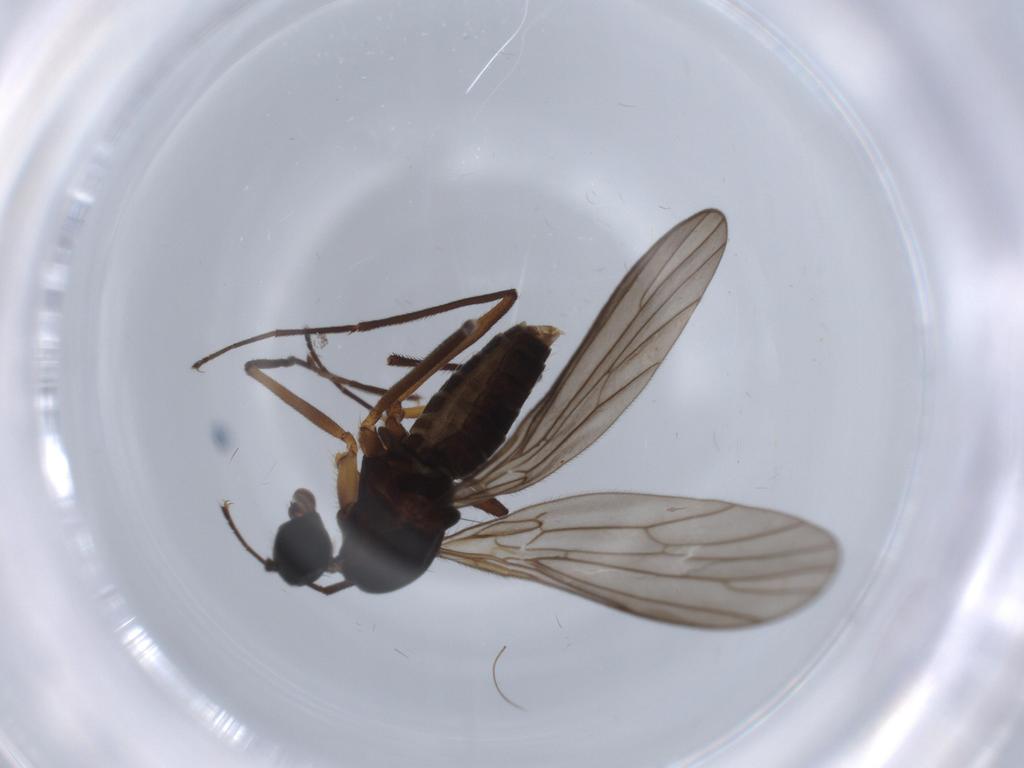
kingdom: Animalia
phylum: Arthropoda
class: Insecta
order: Diptera
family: Empididae
